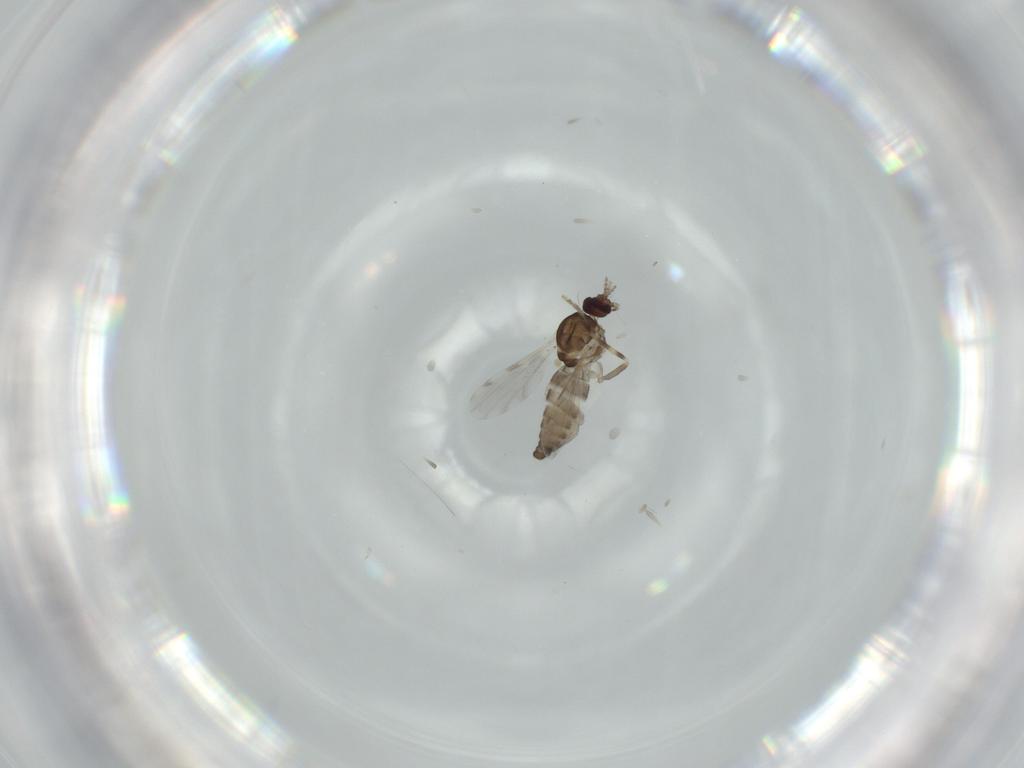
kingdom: Animalia
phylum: Arthropoda
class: Insecta
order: Diptera
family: Ceratopogonidae
